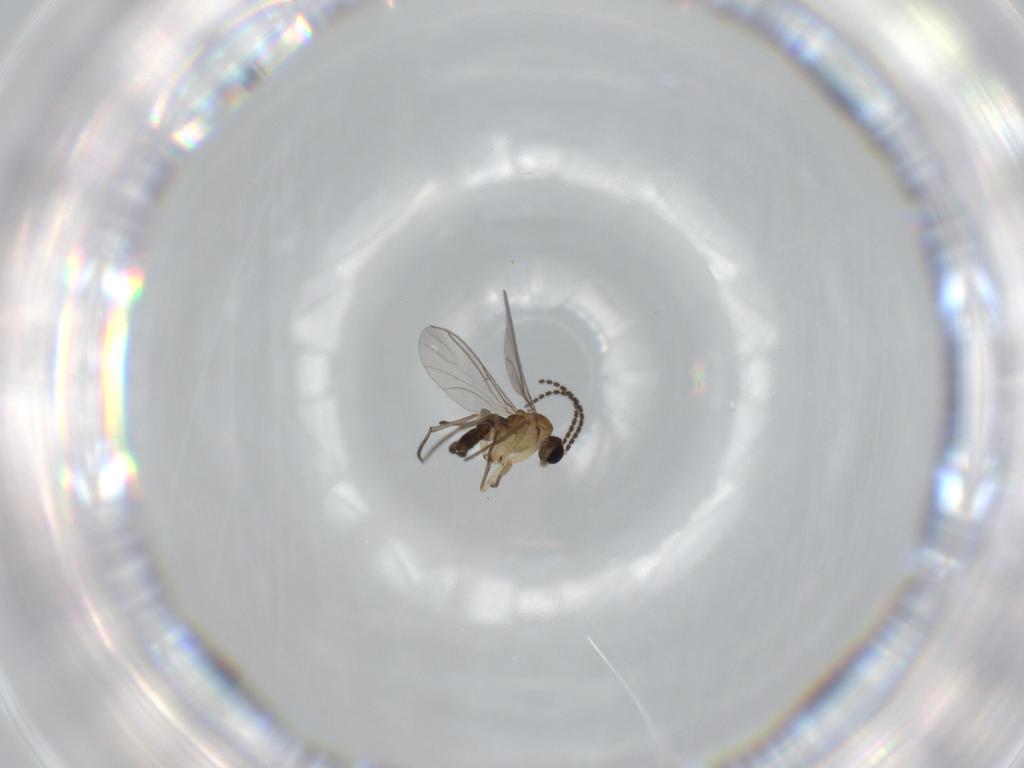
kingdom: Animalia
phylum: Arthropoda
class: Insecta
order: Diptera
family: Sciaridae
